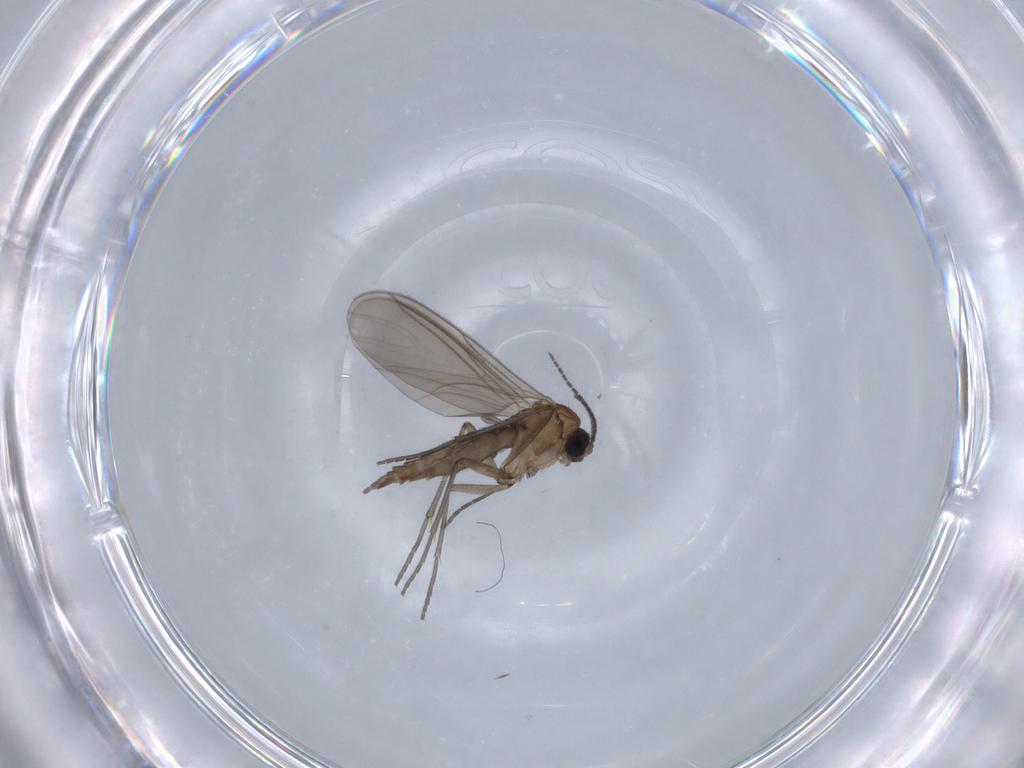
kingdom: Animalia
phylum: Arthropoda
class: Insecta
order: Diptera
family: Sciaridae
